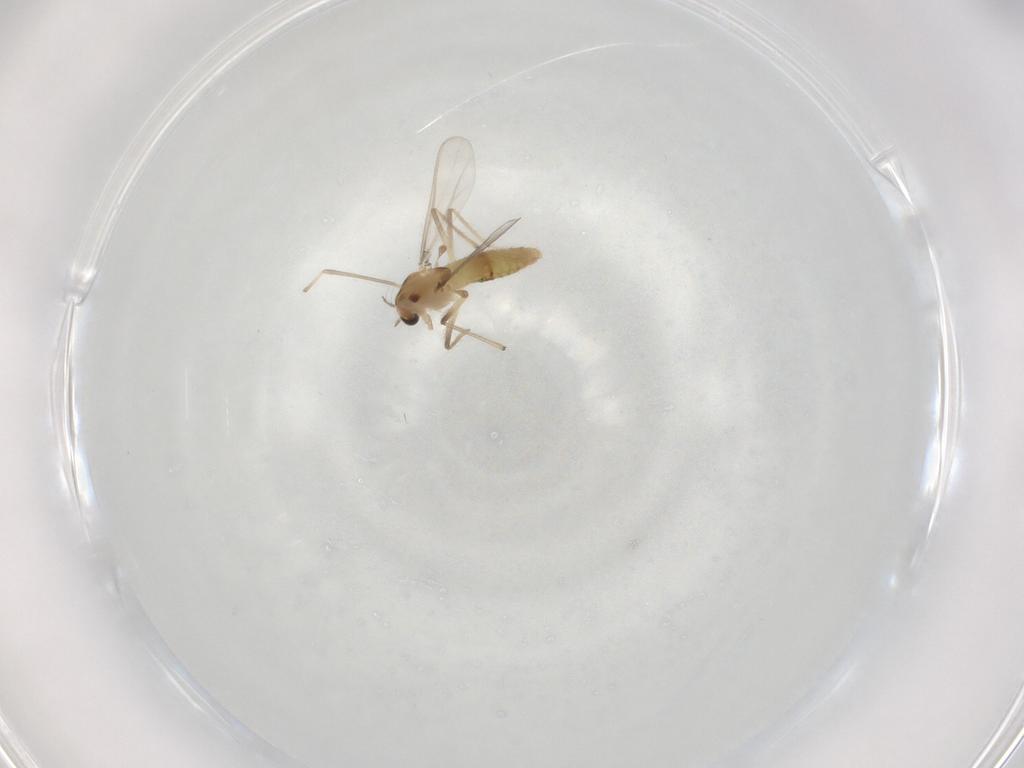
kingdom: Animalia
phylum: Arthropoda
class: Insecta
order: Diptera
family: Chironomidae
